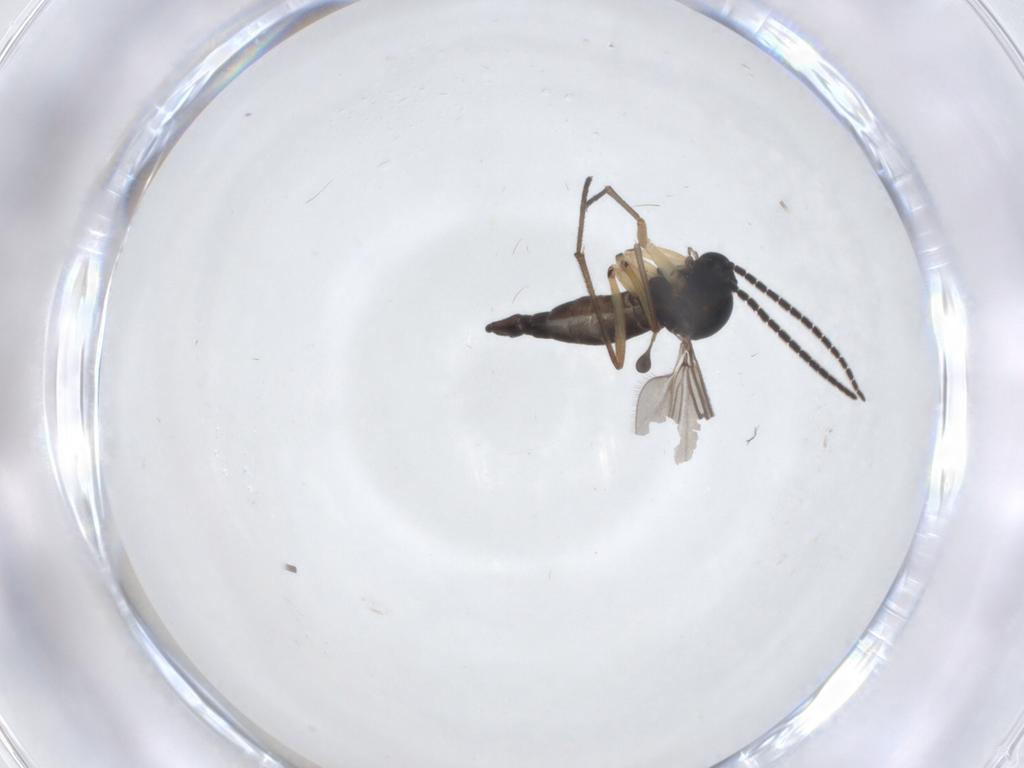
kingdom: Animalia
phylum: Arthropoda
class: Insecta
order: Diptera
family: Sciaridae
